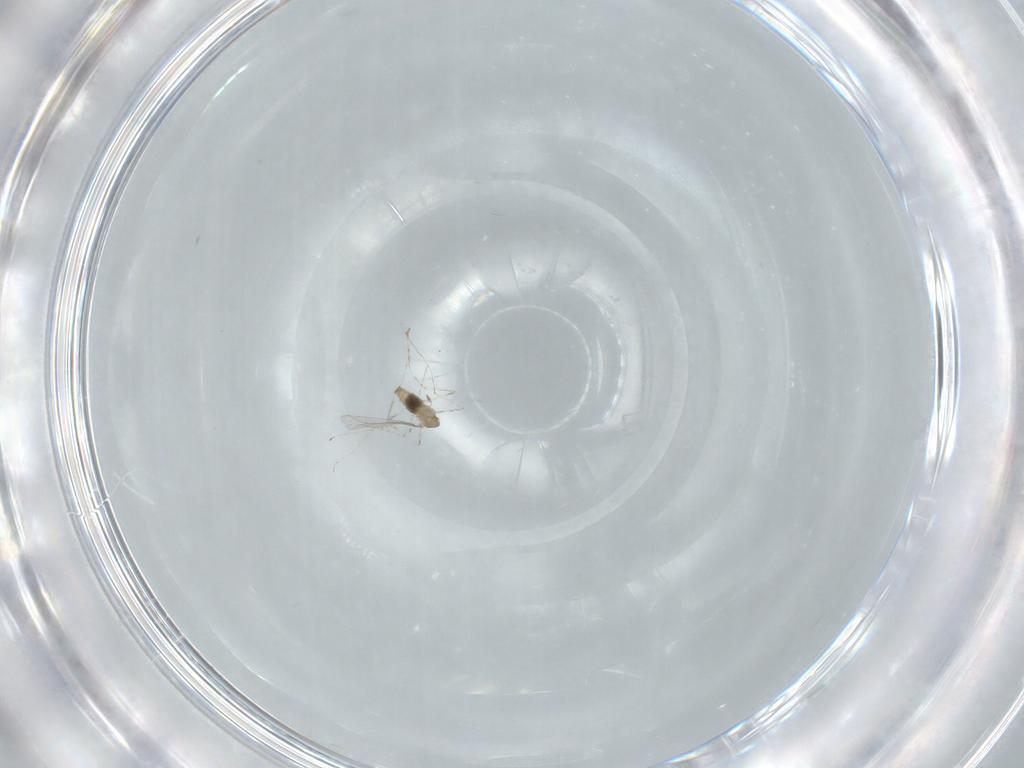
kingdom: Animalia
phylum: Arthropoda
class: Insecta
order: Diptera
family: Cecidomyiidae
